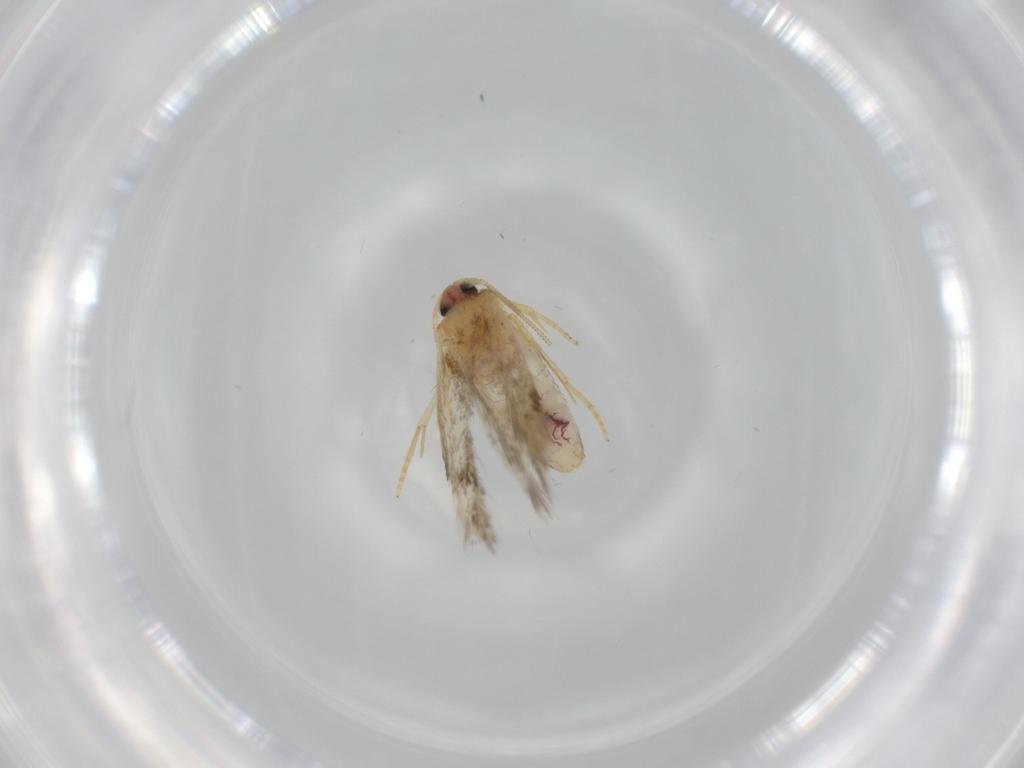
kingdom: Animalia
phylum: Arthropoda
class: Insecta
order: Lepidoptera
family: Nepticulidae
